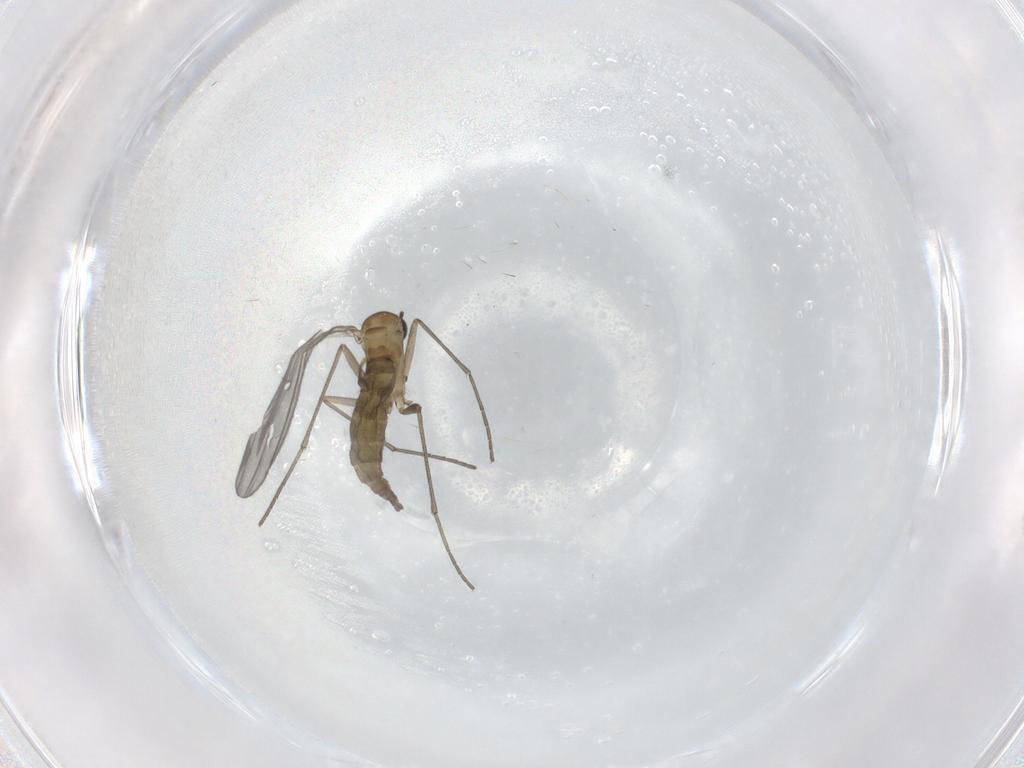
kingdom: Animalia
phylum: Arthropoda
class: Insecta
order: Diptera
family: Sciaridae
